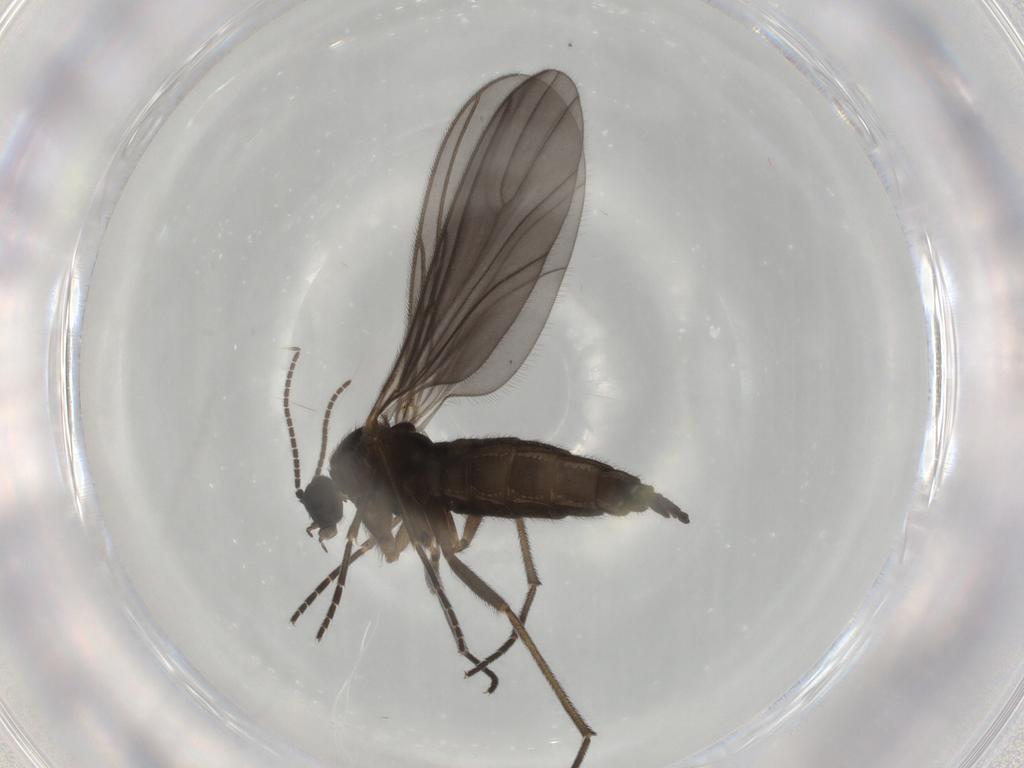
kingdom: Animalia
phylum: Arthropoda
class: Insecta
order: Diptera
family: Sciaridae
